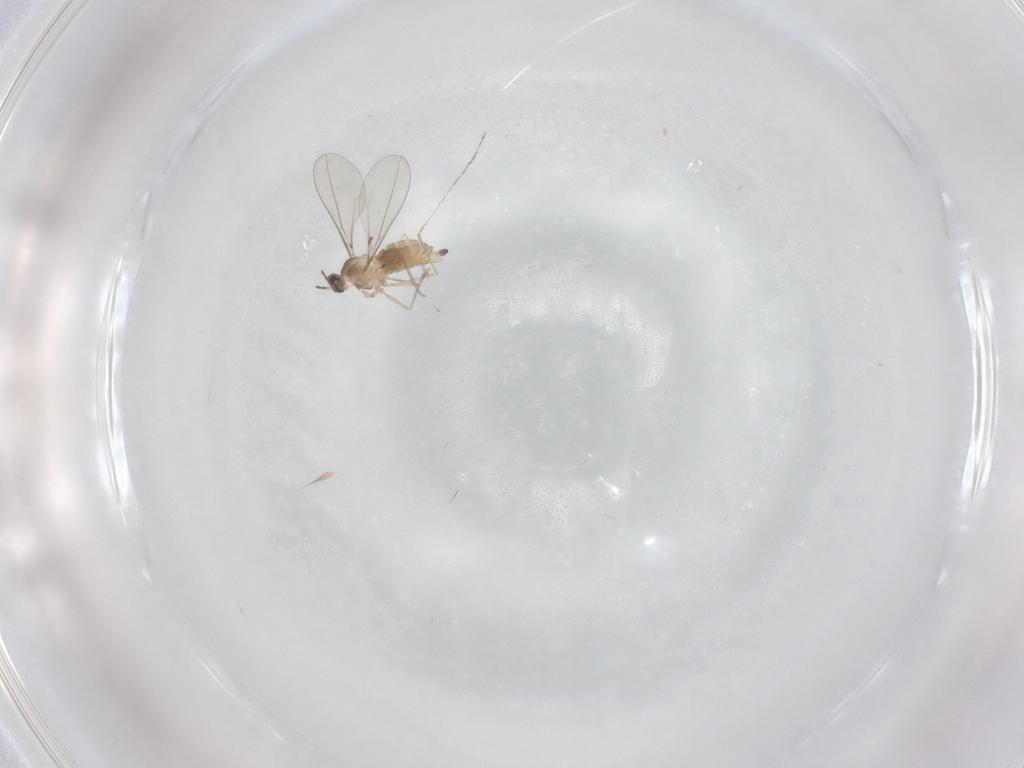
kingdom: Animalia
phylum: Arthropoda
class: Insecta
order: Diptera
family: Cecidomyiidae
